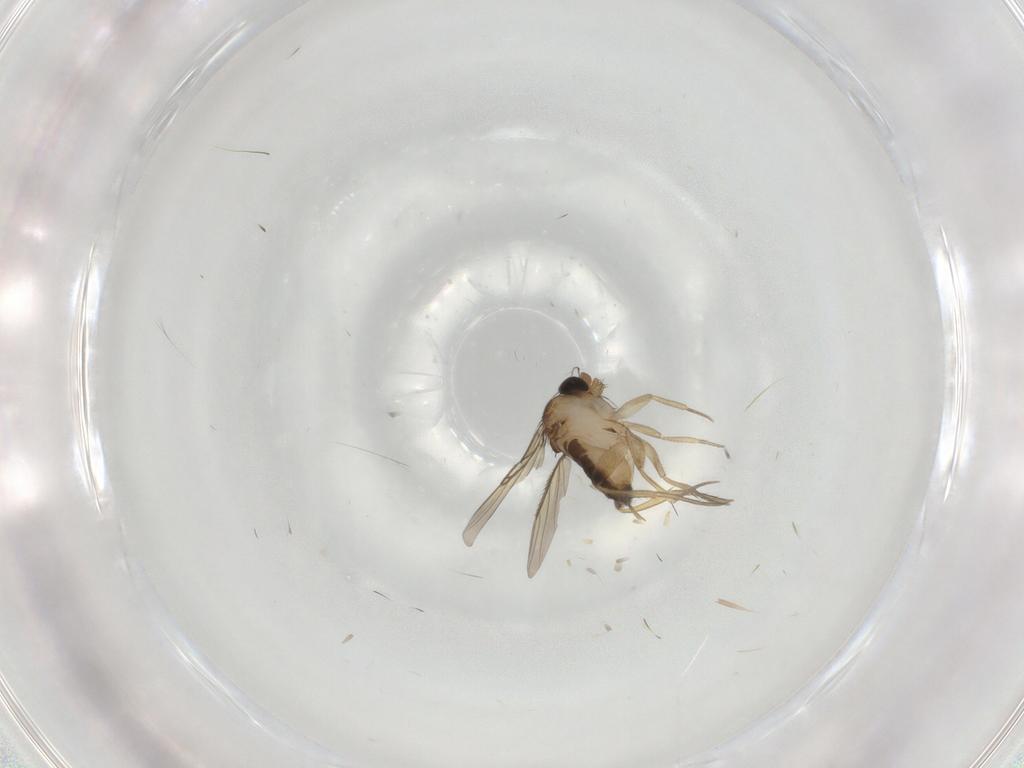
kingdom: Animalia
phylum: Arthropoda
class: Insecta
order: Diptera
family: Phoridae
